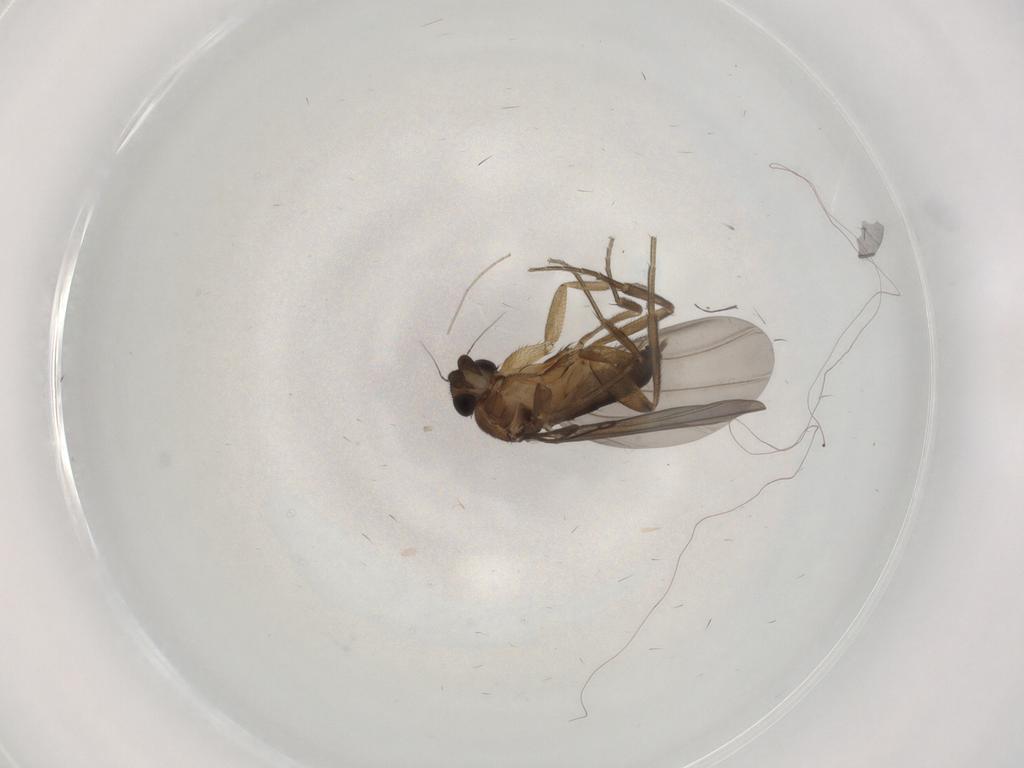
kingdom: Animalia
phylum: Arthropoda
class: Insecta
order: Diptera
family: Phoridae
